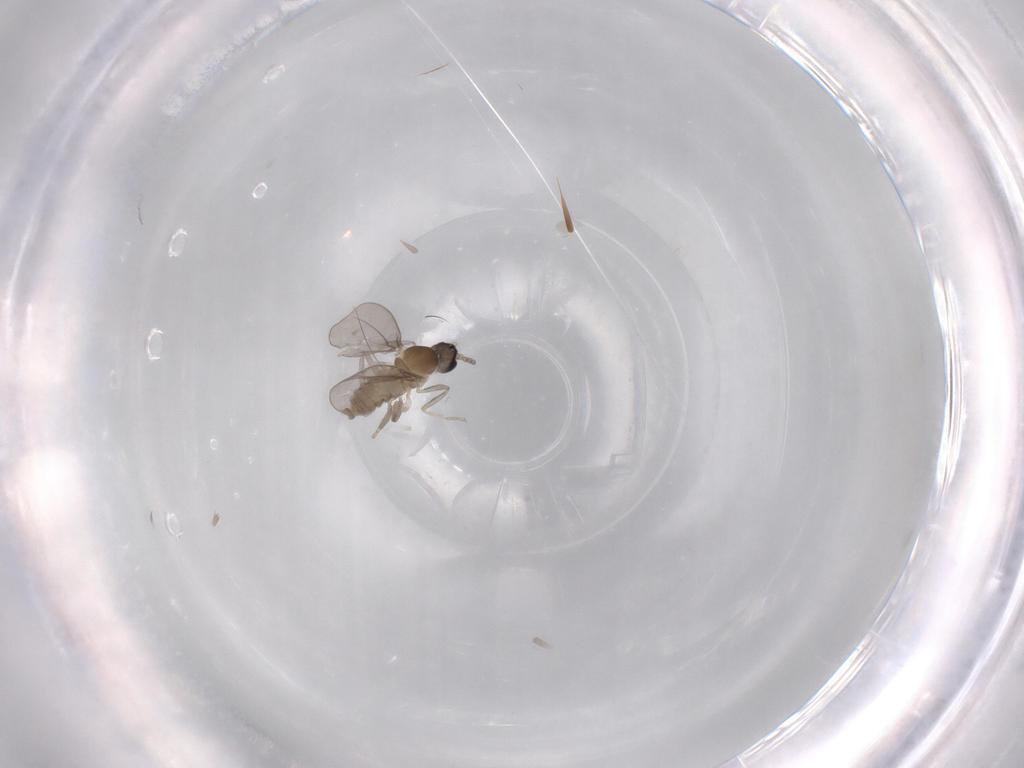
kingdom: Animalia
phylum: Arthropoda
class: Insecta
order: Diptera
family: Cecidomyiidae
